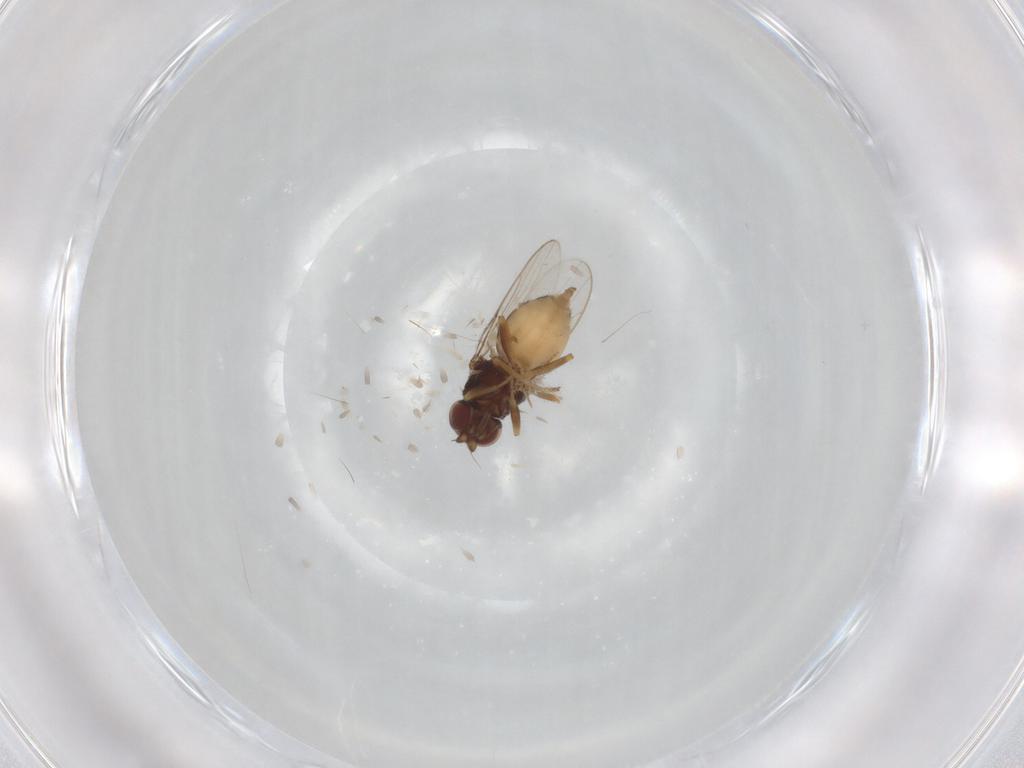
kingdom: Animalia
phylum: Arthropoda
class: Insecta
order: Diptera
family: Chloropidae
